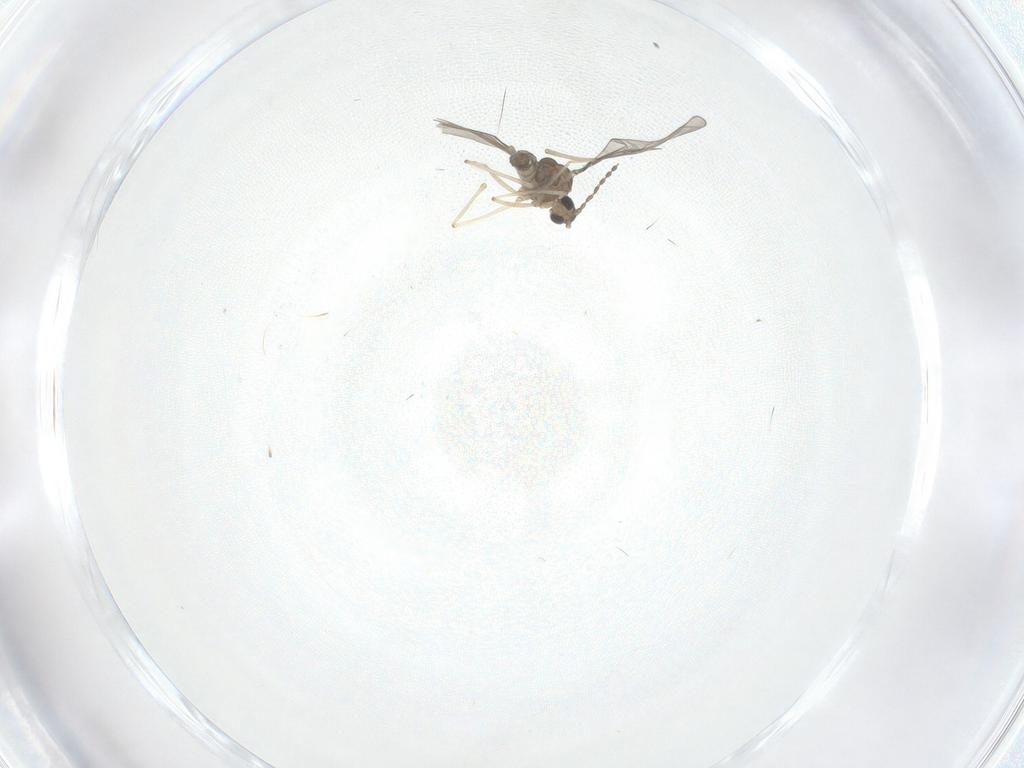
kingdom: Animalia
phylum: Arthropoda
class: Insecta
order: Diptera
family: Cecidomyiidae
